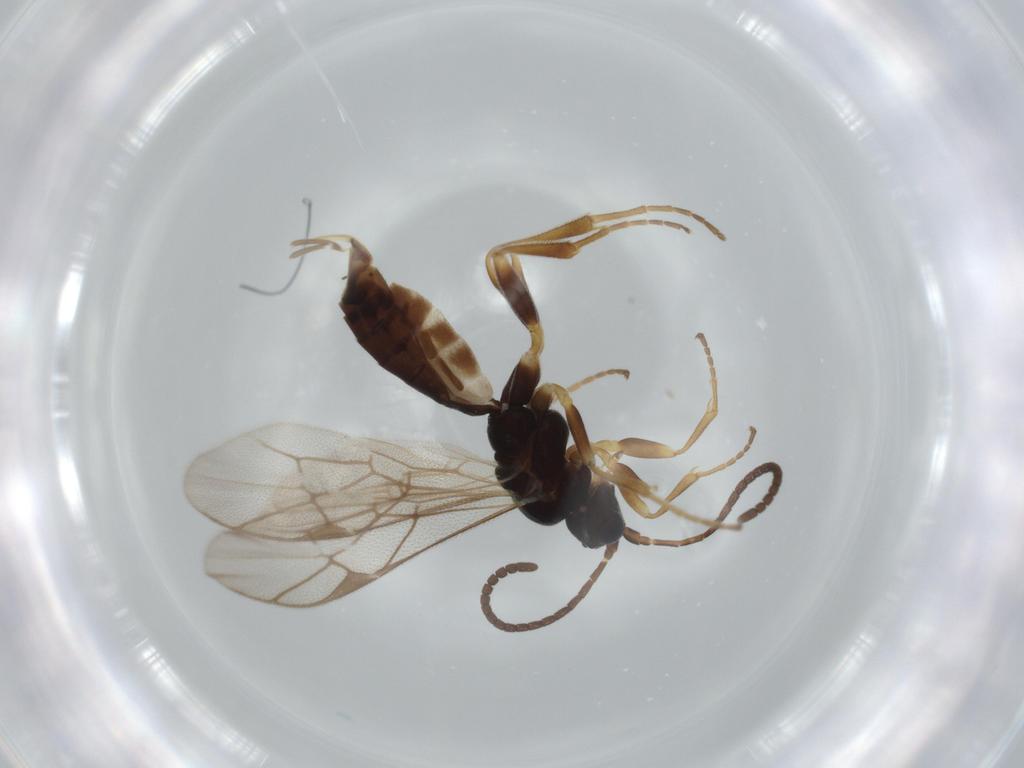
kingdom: Animalia
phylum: Arthropoda
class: Insecta
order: Hymenoptera
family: Ichneumonidae
